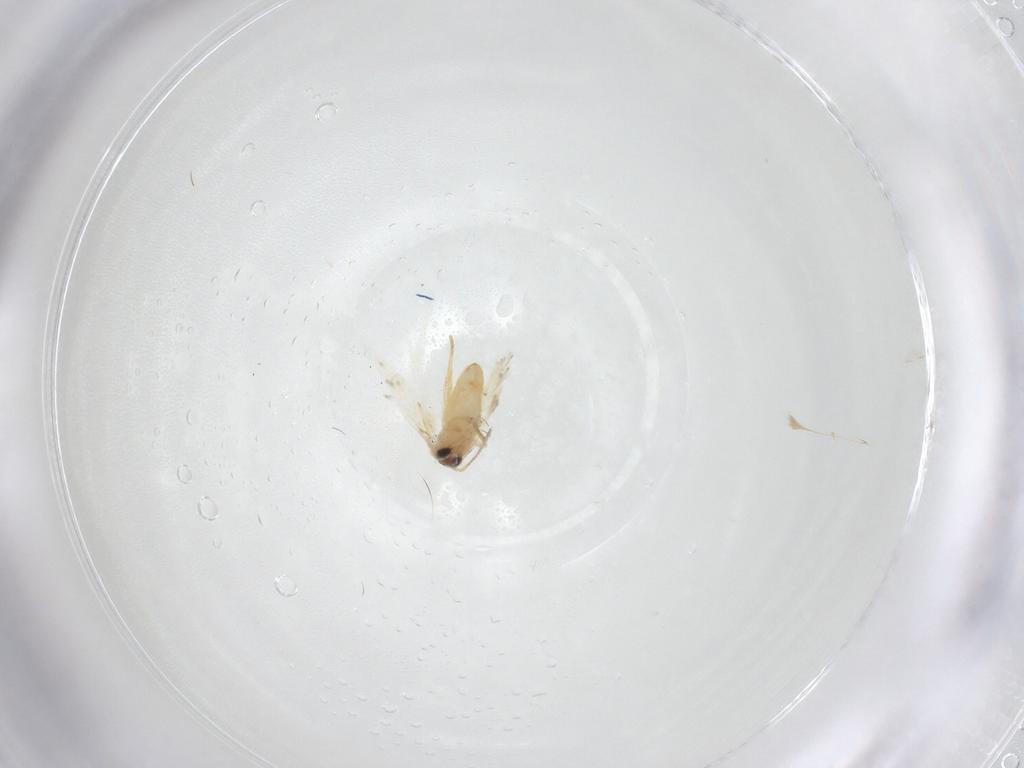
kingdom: Animalia
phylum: Arthropoda
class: Insecta
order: Lepidoptera
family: Crambidae
